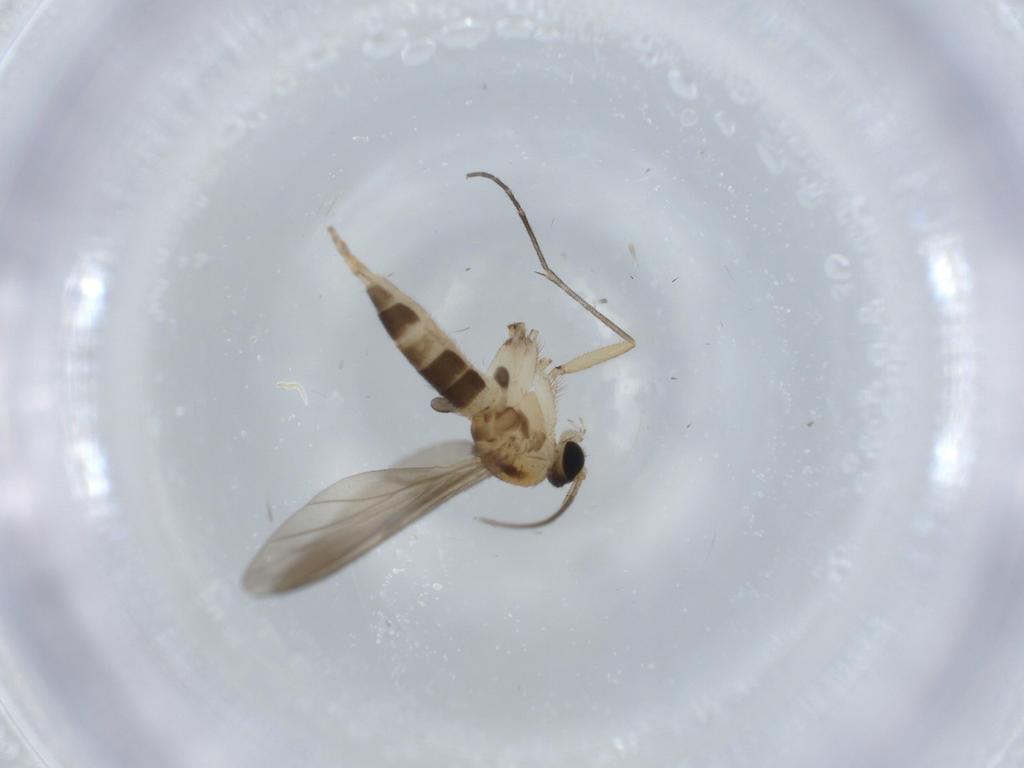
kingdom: Animalia
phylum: Arthropoda
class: Insecta
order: Diptera
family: Sciaridae
